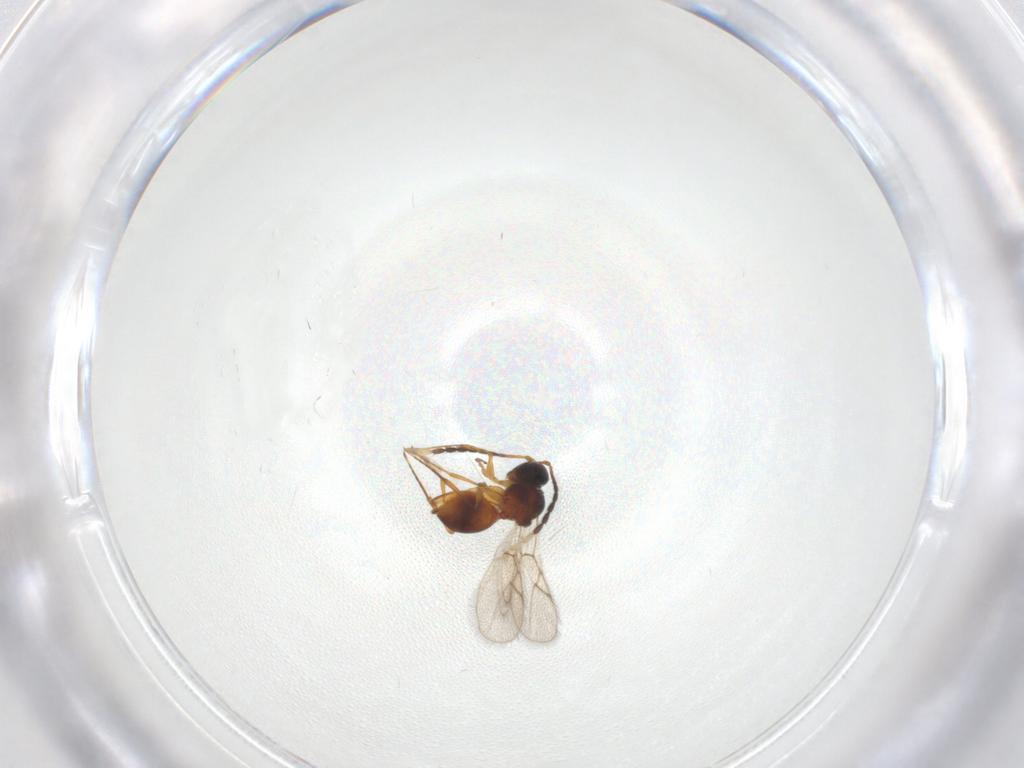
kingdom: Animalia
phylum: Arthropoda
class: Insecta
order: Hymenoptera
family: Figitidae
